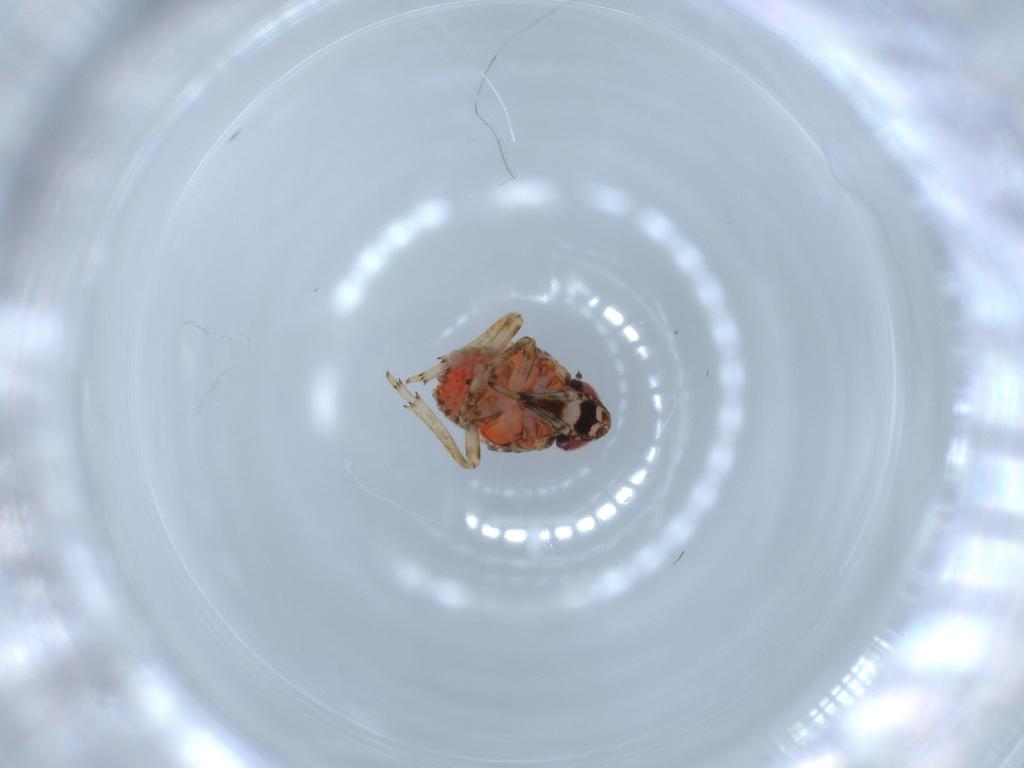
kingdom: Animalia
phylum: Arthropoda
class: Insecta
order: Hemiptera
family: Issidae
